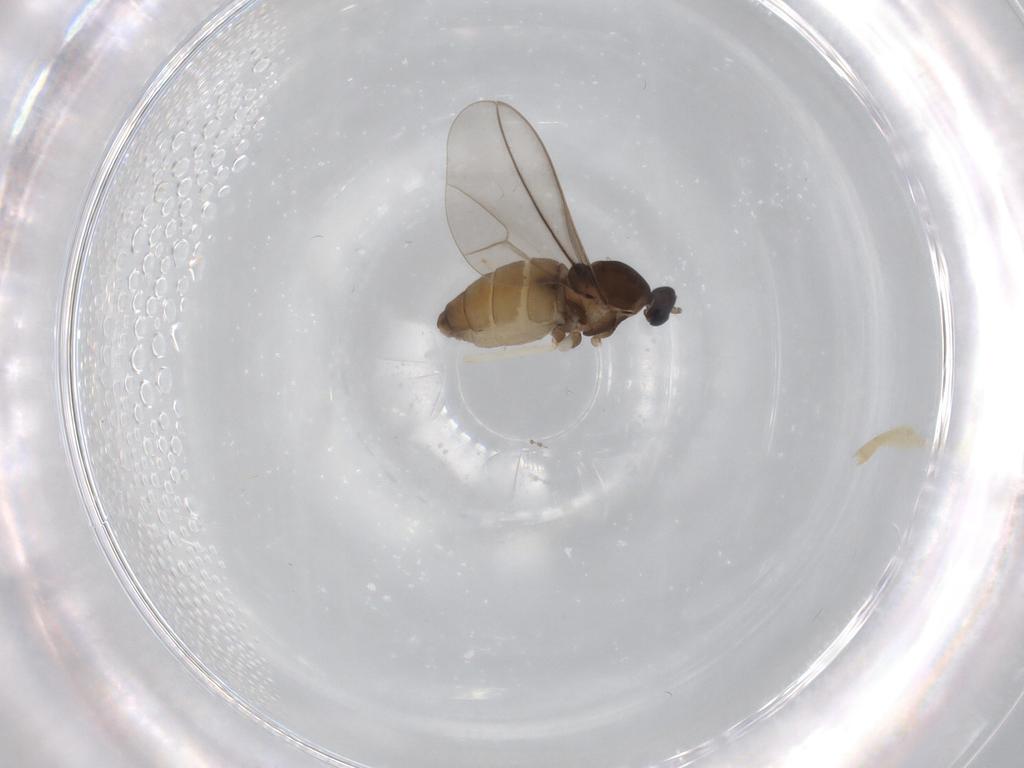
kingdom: Animalia
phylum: Arthropoda
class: Insecta
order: Diptera
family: Cecidomyiidae
